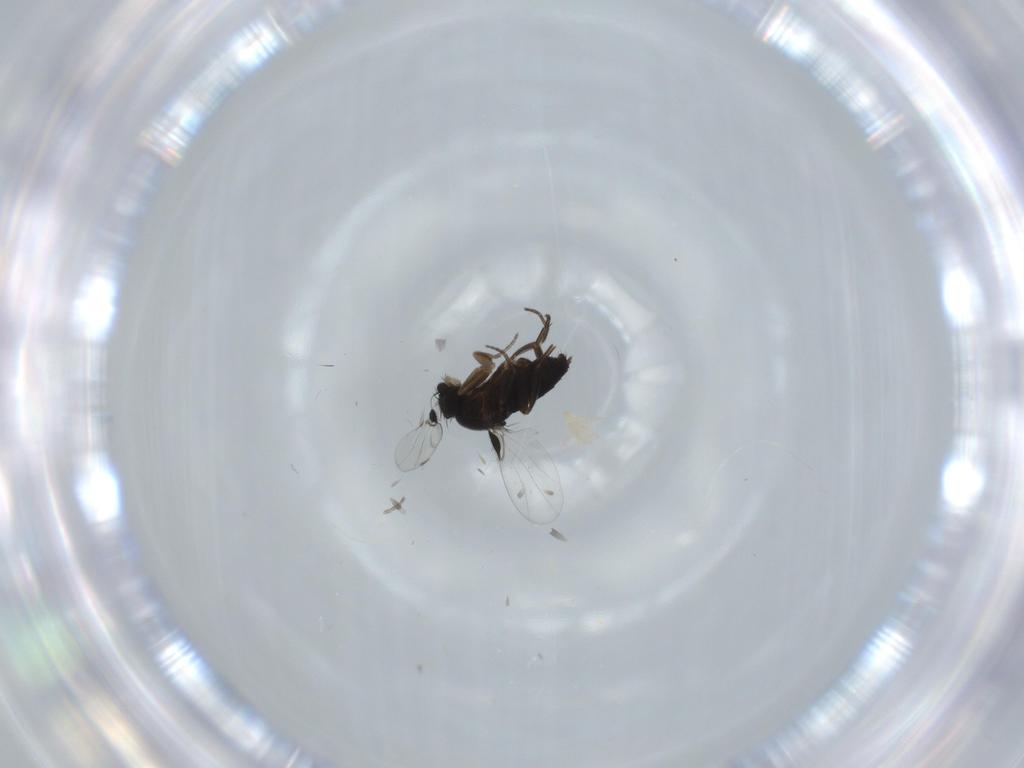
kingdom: Animalia
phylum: Arthropoda
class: Insecta
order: Diptera
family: Phoridae
